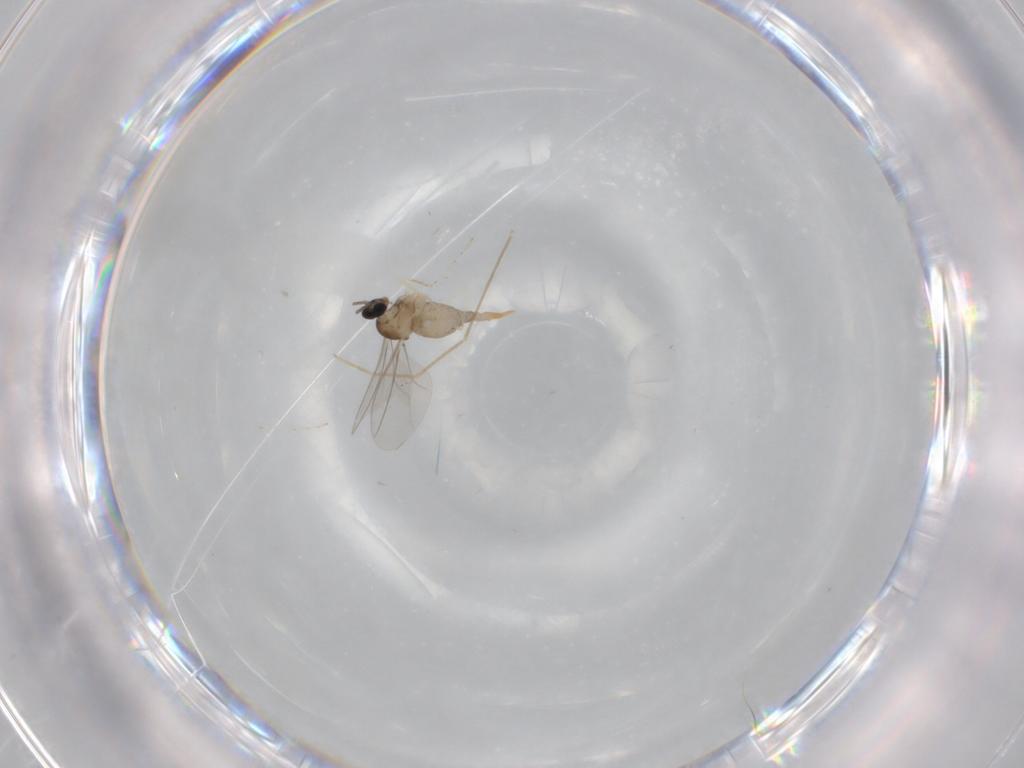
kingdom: Animalia
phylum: Arthropoda
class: Insecta
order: Diptera
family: Cecidomyiidae
